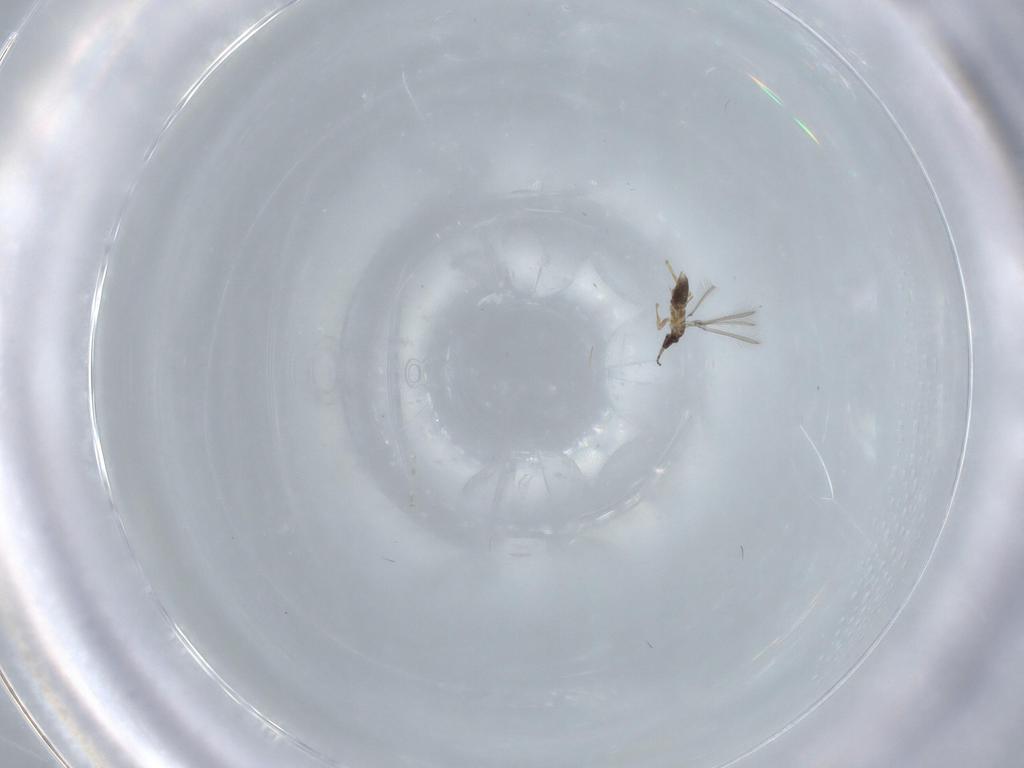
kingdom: Animalia
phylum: Arthropoda
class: Insecta
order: Hymenoptera
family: Mymaridae
